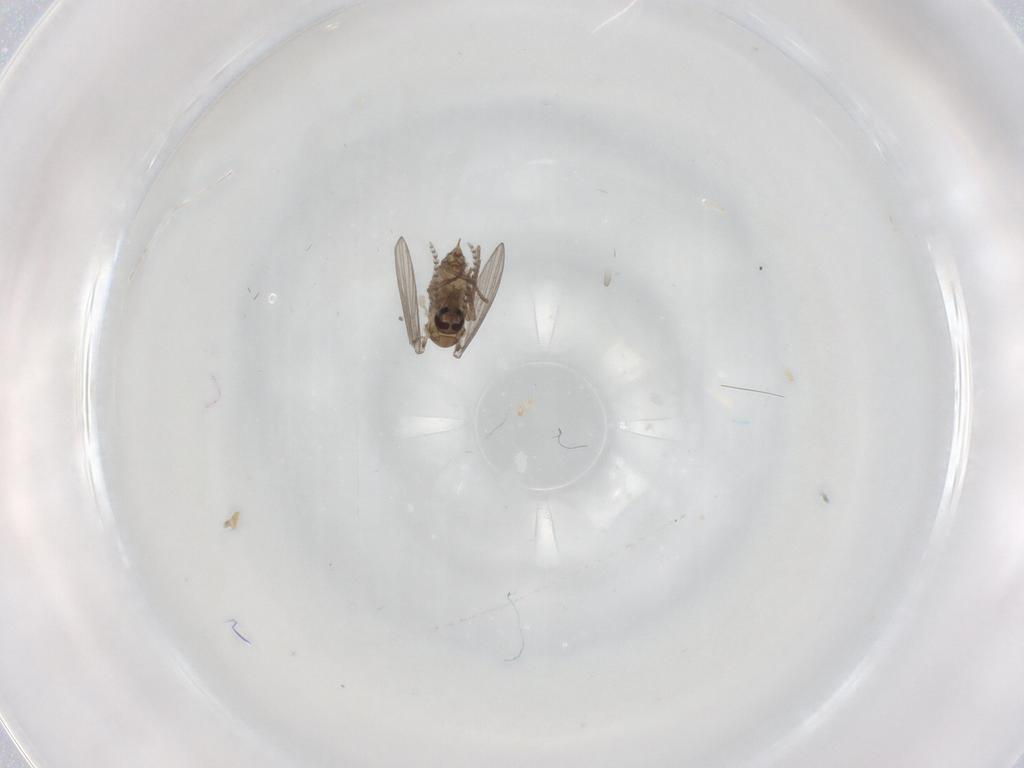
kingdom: Animalia
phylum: Arthropoda
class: Insecta
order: Diptera
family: Psychodidae
